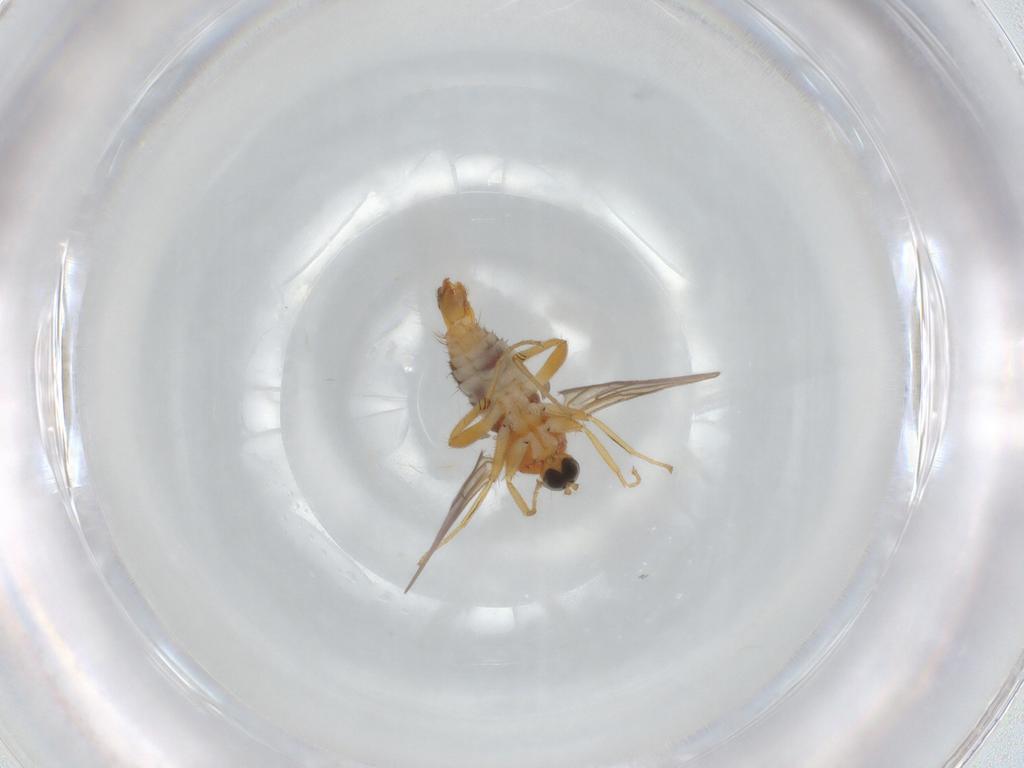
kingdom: Animalia
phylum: Arthropoda
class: Insecta
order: Diptera
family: Hybotidae
